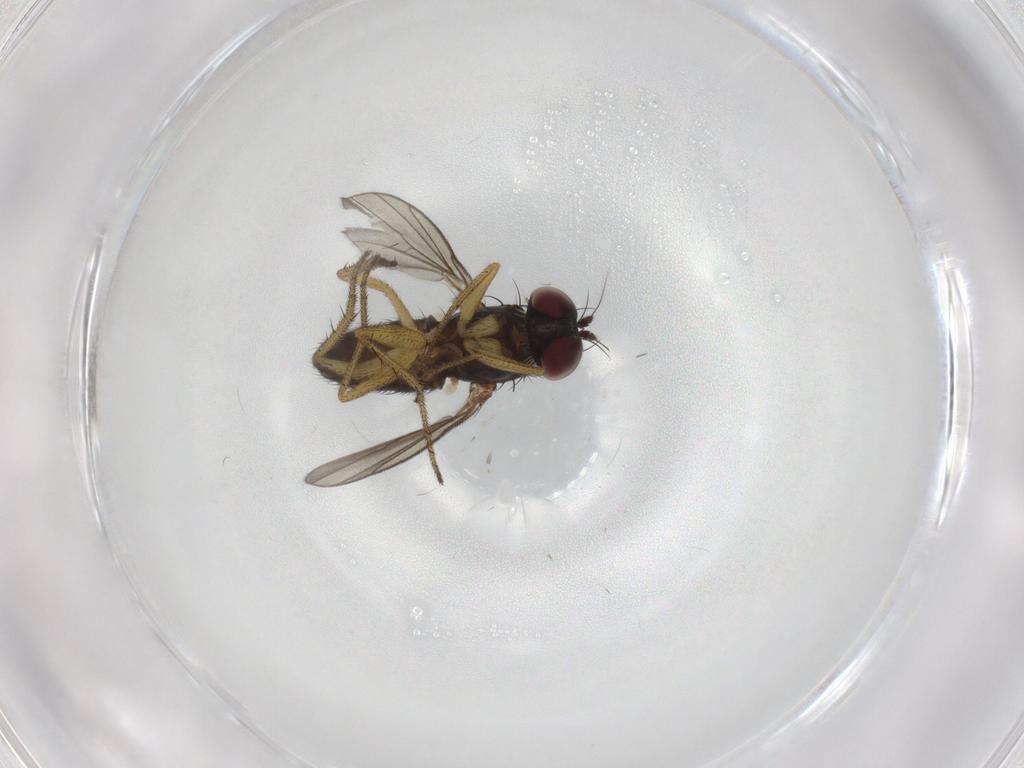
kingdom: Animalia
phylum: Arthropoda
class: Insecta
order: Diptera
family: Dolichopodidae
